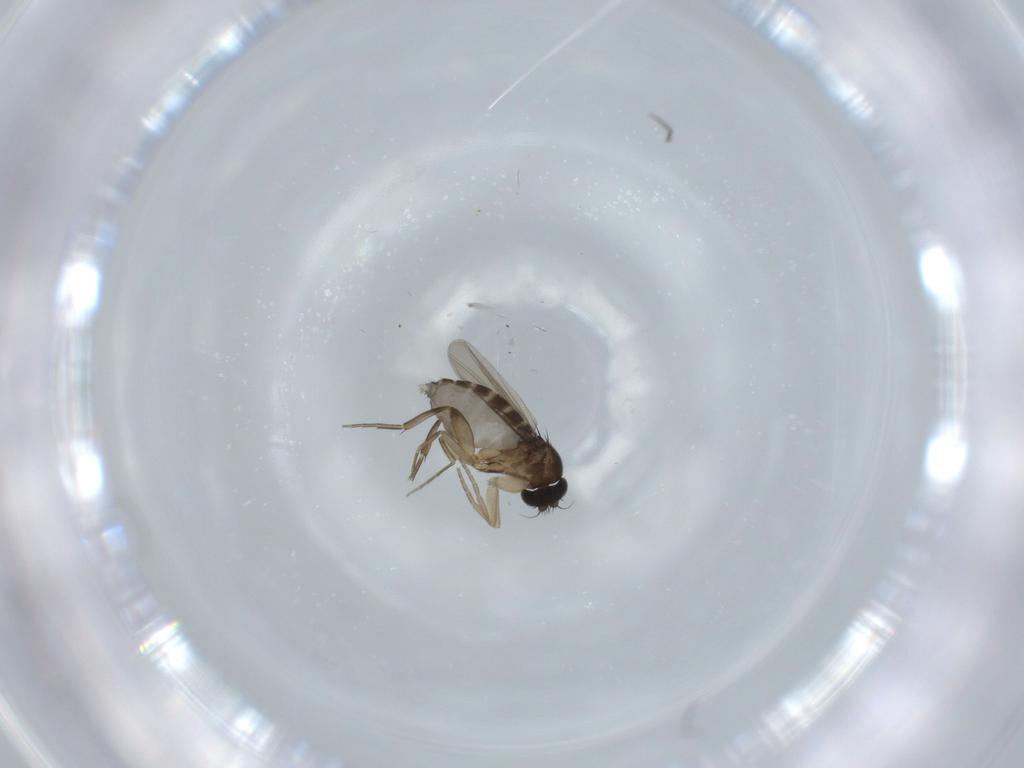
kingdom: Animalia
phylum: Arthropoda
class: Insecta
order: Diptera
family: Phoridae
